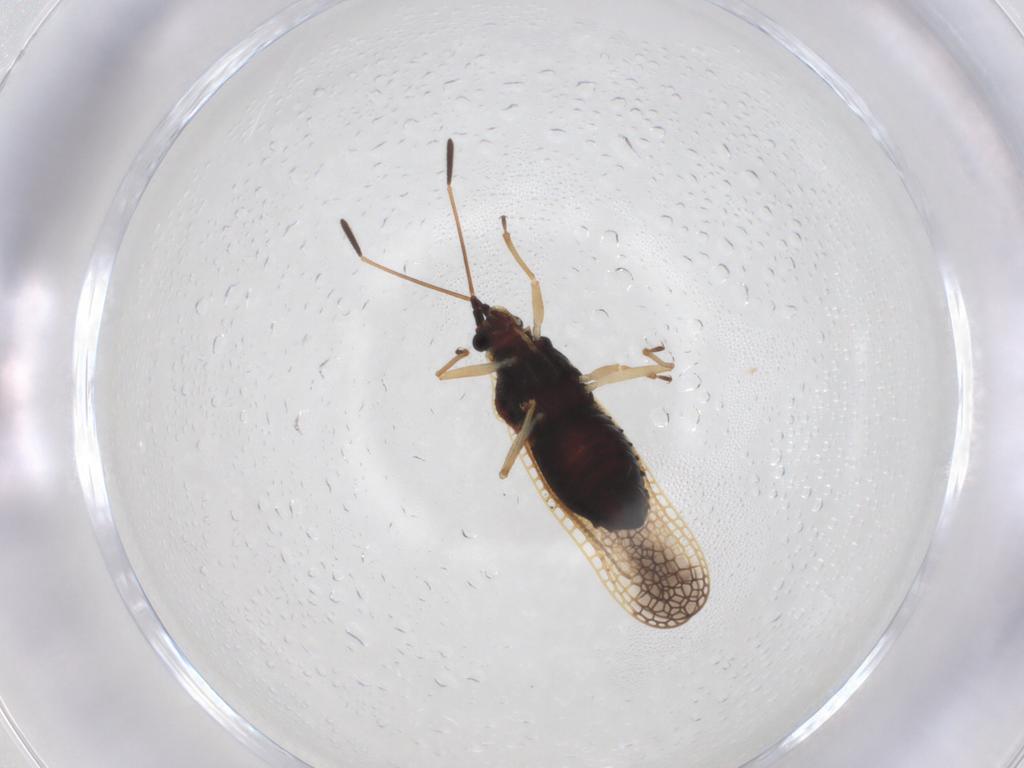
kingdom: Animalia
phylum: Arthropoda
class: Insecta
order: Hemiptera
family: Tingidae
